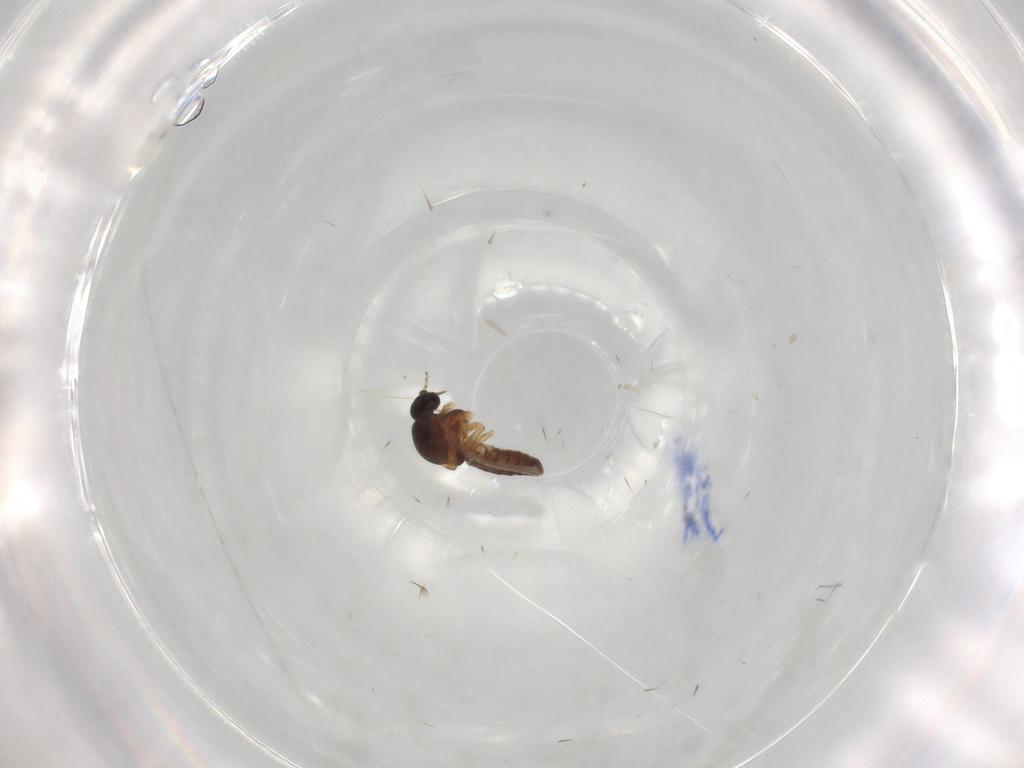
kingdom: Animalia
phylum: Arthropoda
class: Insecta
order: Diptera
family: Ceratopogonidae
